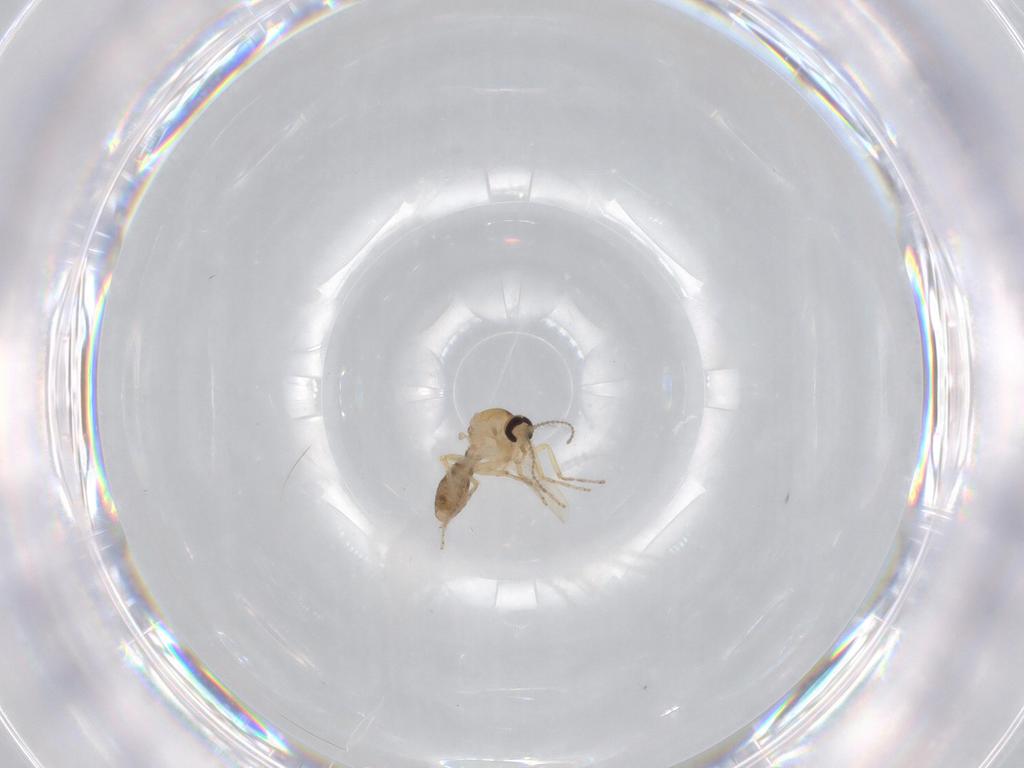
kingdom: Animalia
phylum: Arthropoda
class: Insecta
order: Diptera
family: Ceratopogonidae
